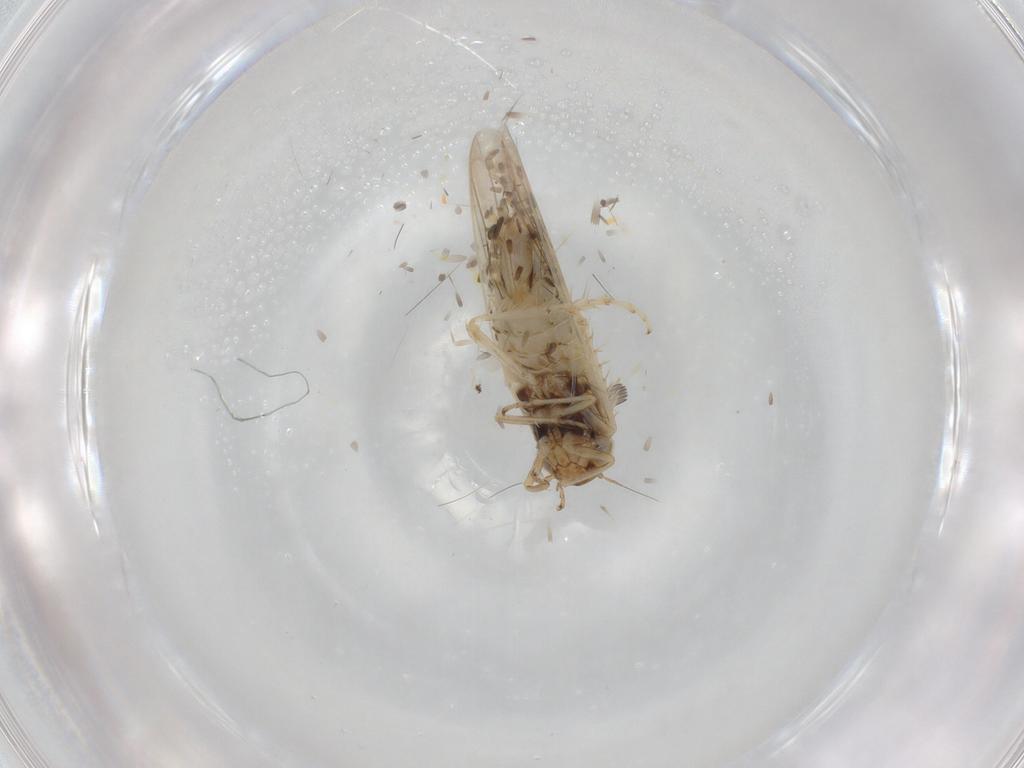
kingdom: Animalia
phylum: Arthropoda
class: Insecta
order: Hemiptera
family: Cicadellidae
